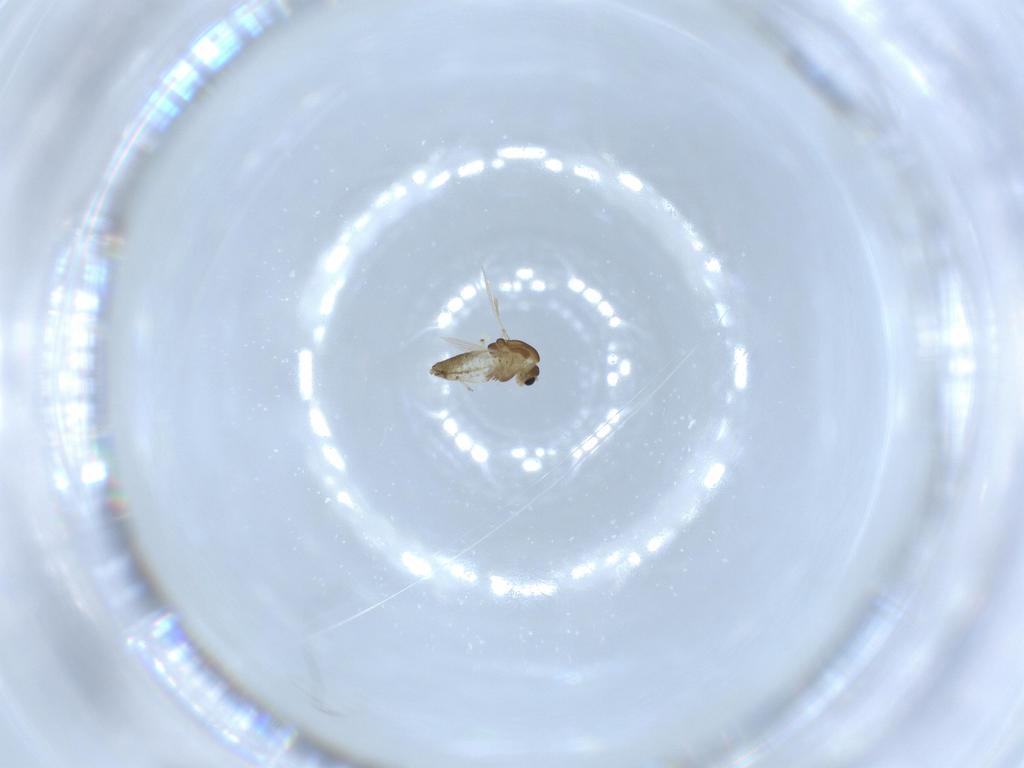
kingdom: Animalia
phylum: Arthropoda
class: Insecta
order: Diptera
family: Chironomidae
